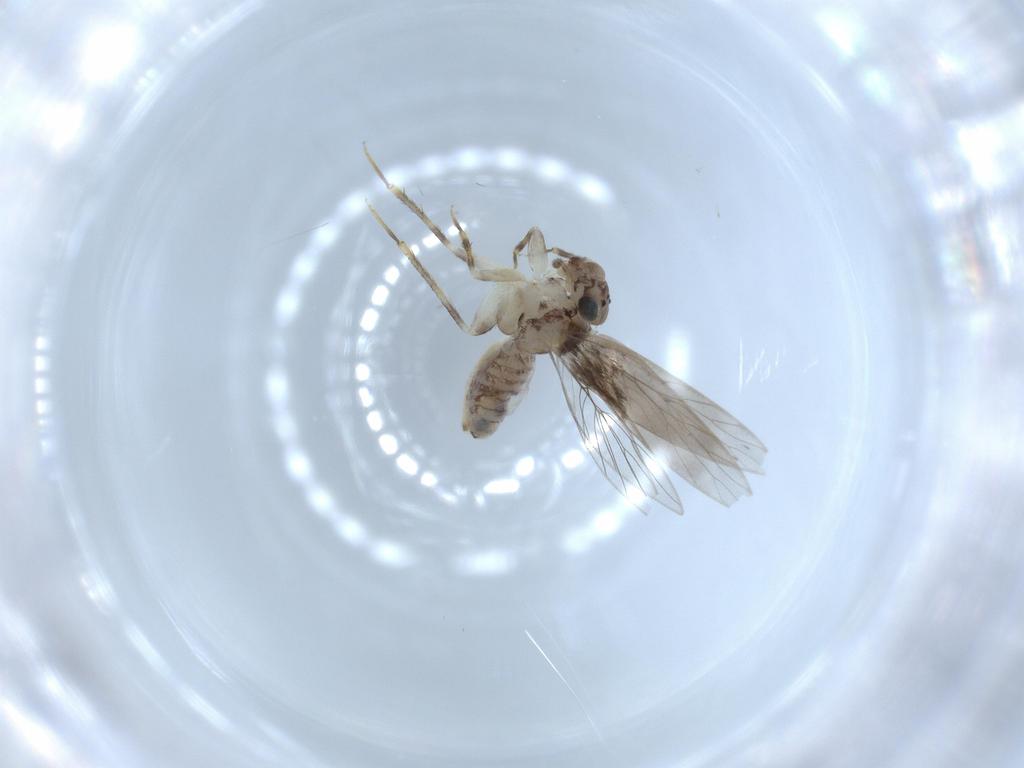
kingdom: Animalia
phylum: Arthropoda
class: Insecta
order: Psocodea
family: Lepidopsocidae
